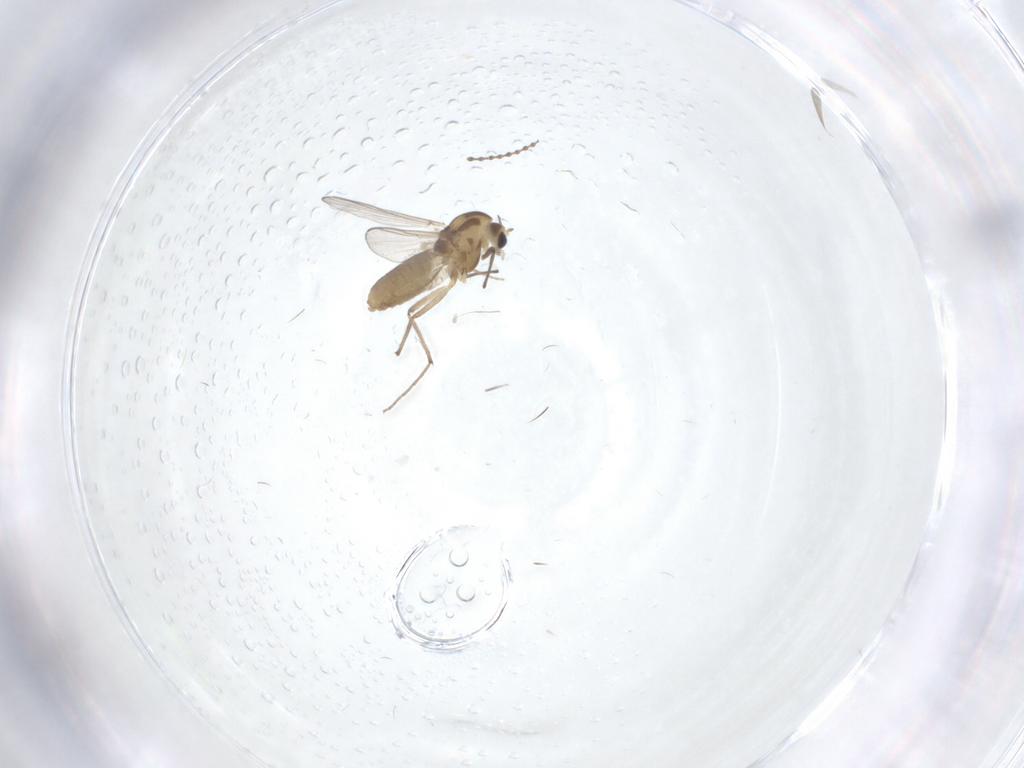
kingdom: Animalia
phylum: Arthropoda
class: Insecta
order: Diptera
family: Chironomidae
